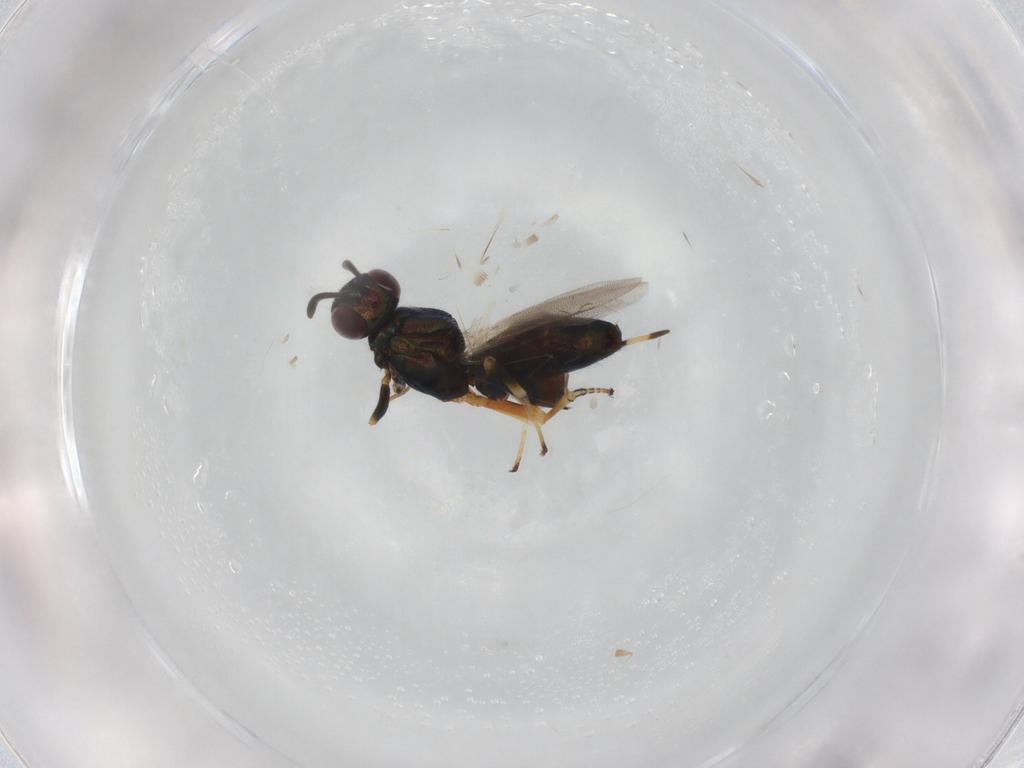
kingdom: Animalia
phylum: Arthropoda
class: Insecta
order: Hymenoptera
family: Eupelmidae
